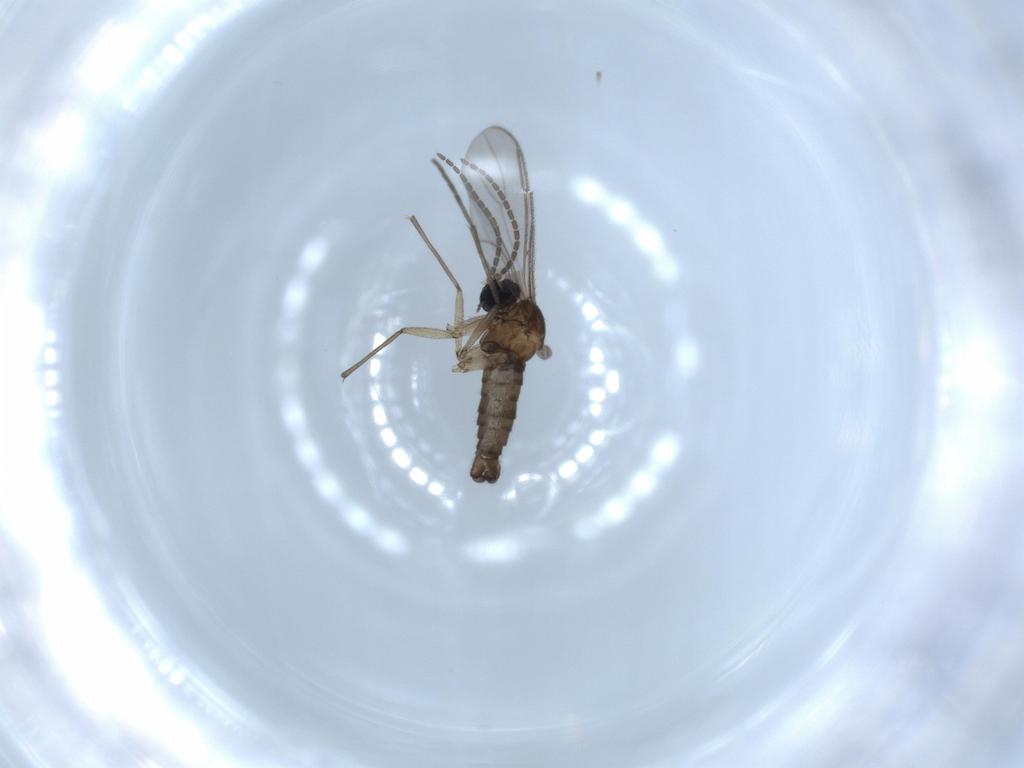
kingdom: Animalia
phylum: Arthropoda
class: Insecta
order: Diptera
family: Sciaridae
